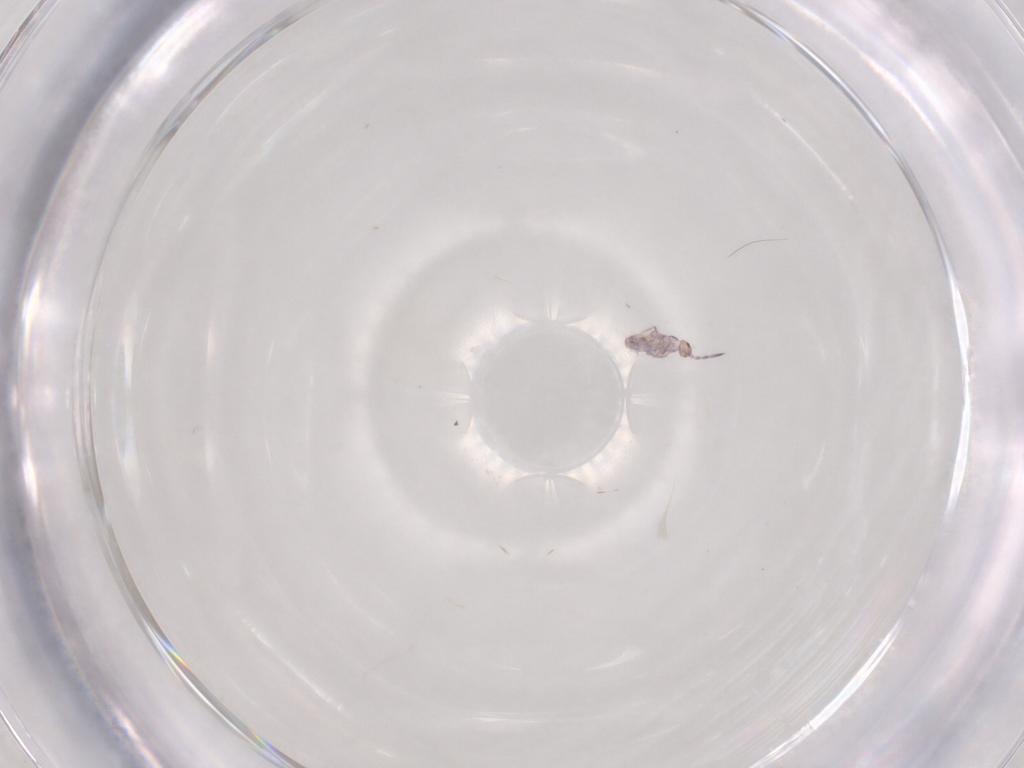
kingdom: Animalia
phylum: Arthropoda
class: Collembola
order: Entomobryomorpha
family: Entomobryidae
